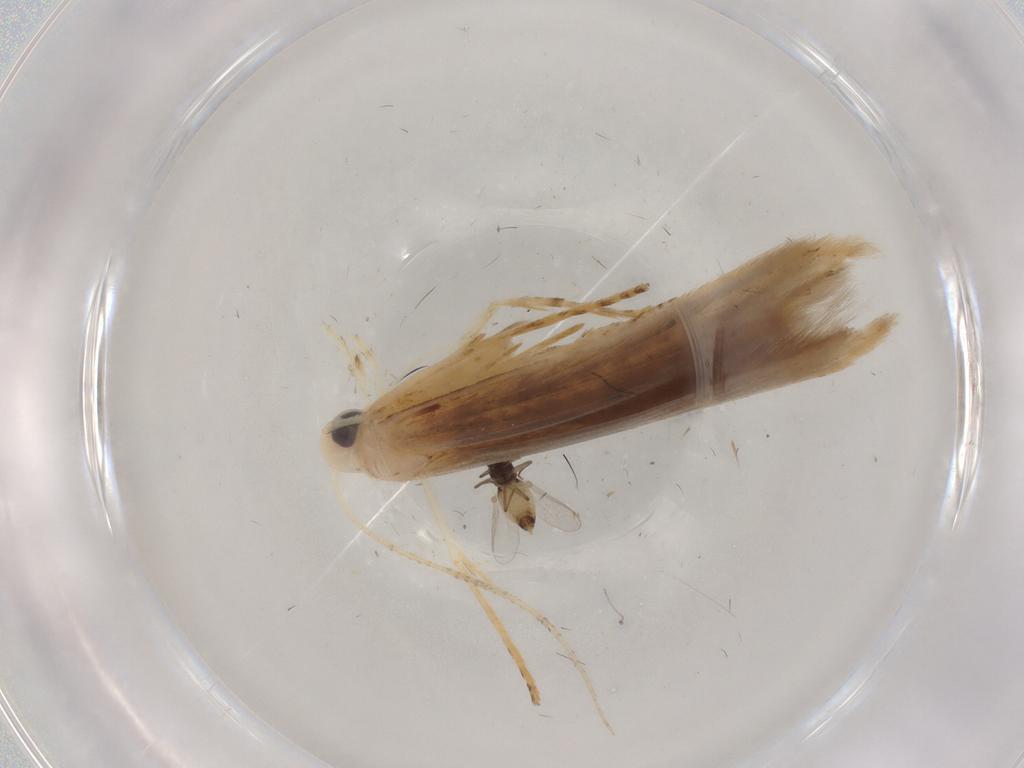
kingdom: Animalia
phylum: Arthropoda
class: Insecta
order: Lepidoptera
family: Batrachedridae
